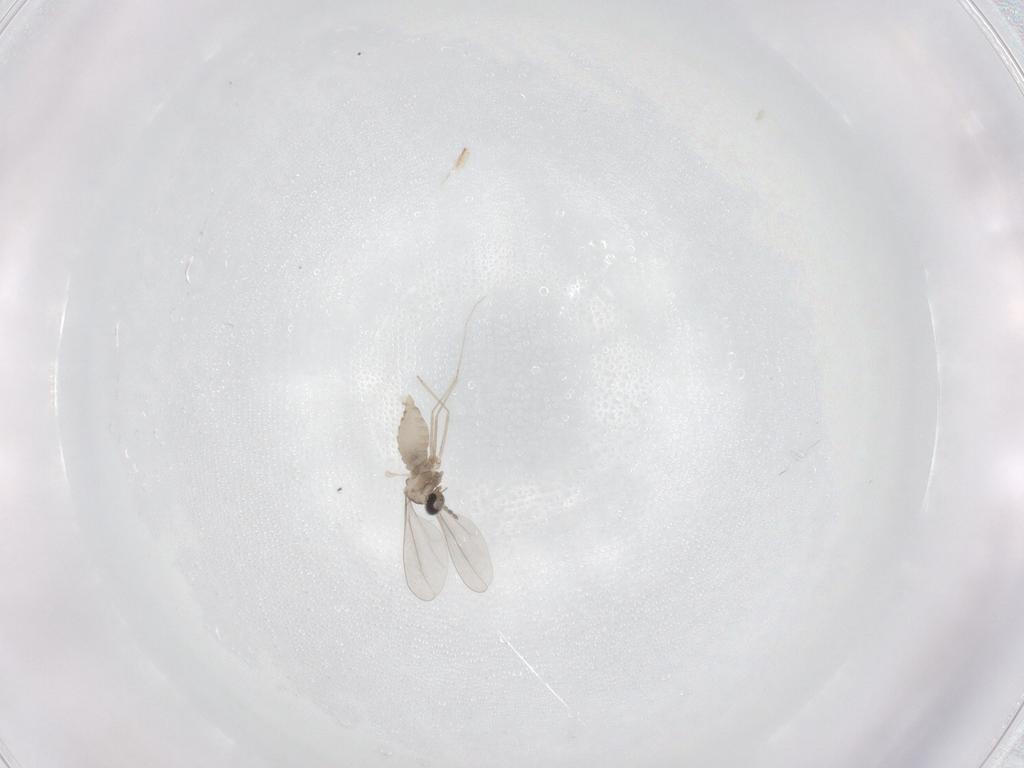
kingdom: Animalia
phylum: Arthropoda
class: Insecta
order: Diptera
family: Cecidomyiidae
